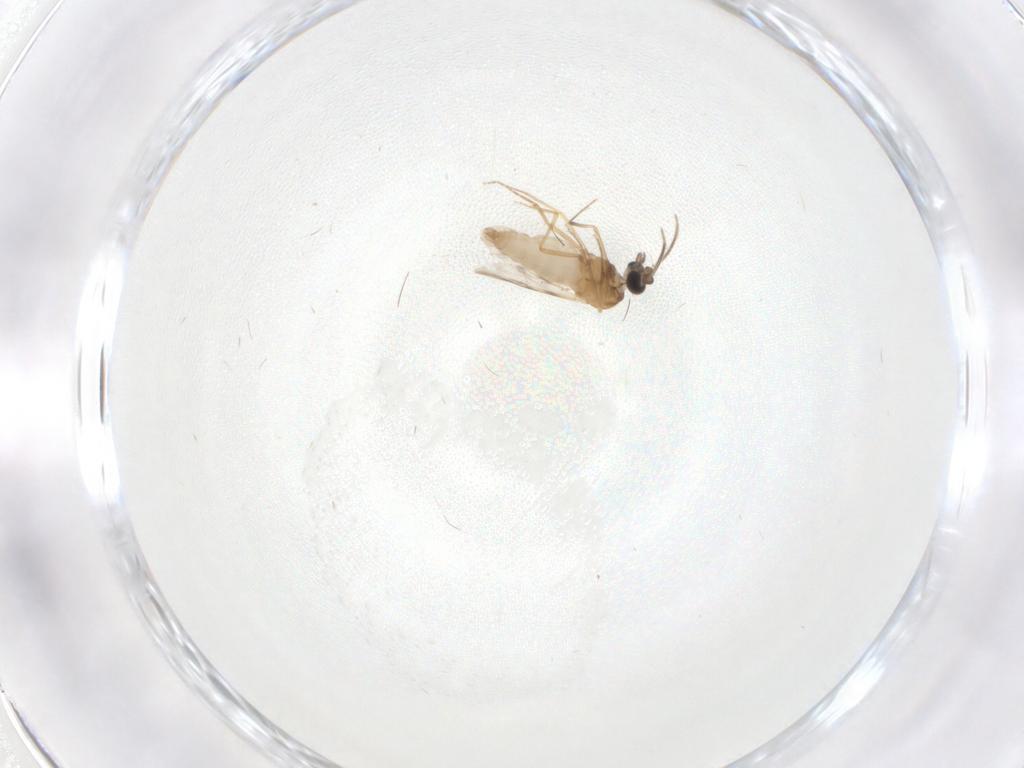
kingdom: Animalia
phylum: Arthropoda
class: Insecta
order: Diptera
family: Ceratopogonidae
